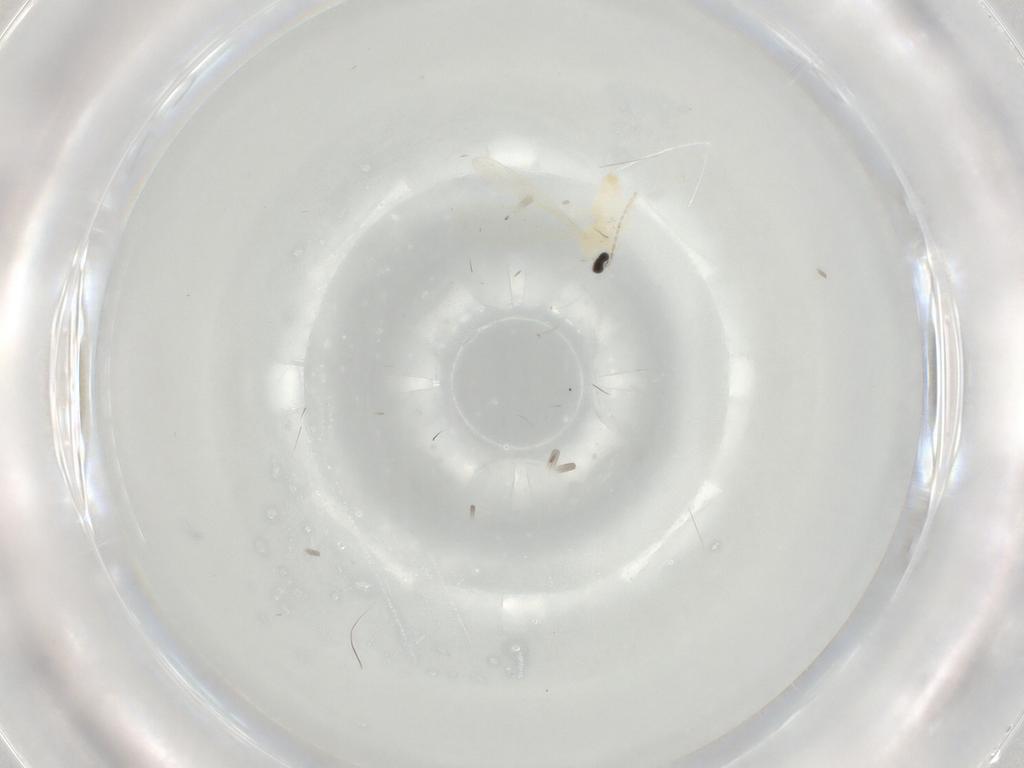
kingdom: Animalia
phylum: Arthropoda
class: Insecta
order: Diptera
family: Cecidomyiidae
